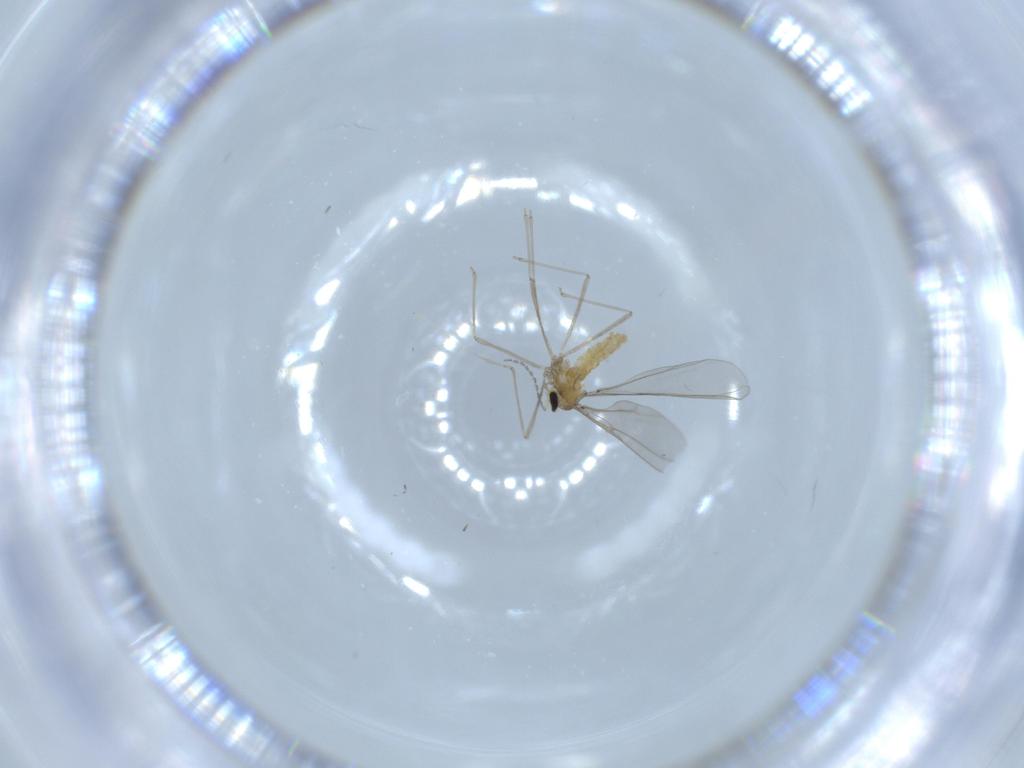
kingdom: Animalia
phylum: Arthropoda
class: Insecta
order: Diptera
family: Cecidomyiidae
